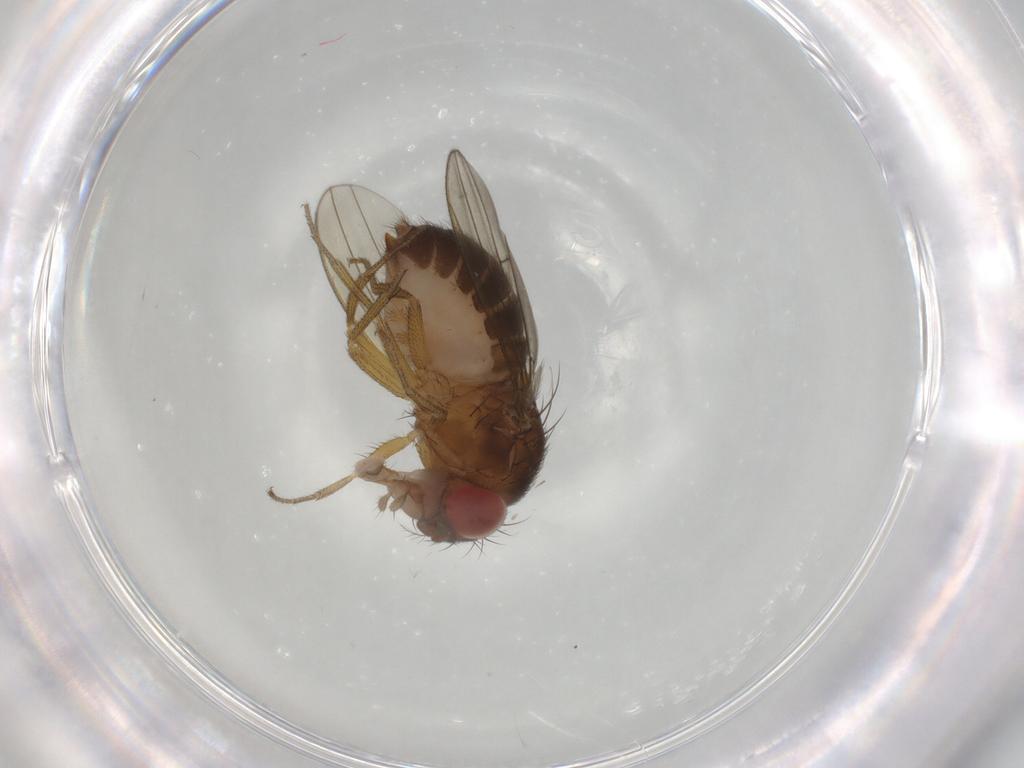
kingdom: Animalia
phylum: Arthropoda
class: Insecta
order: Diptera
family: Drosophilidae
